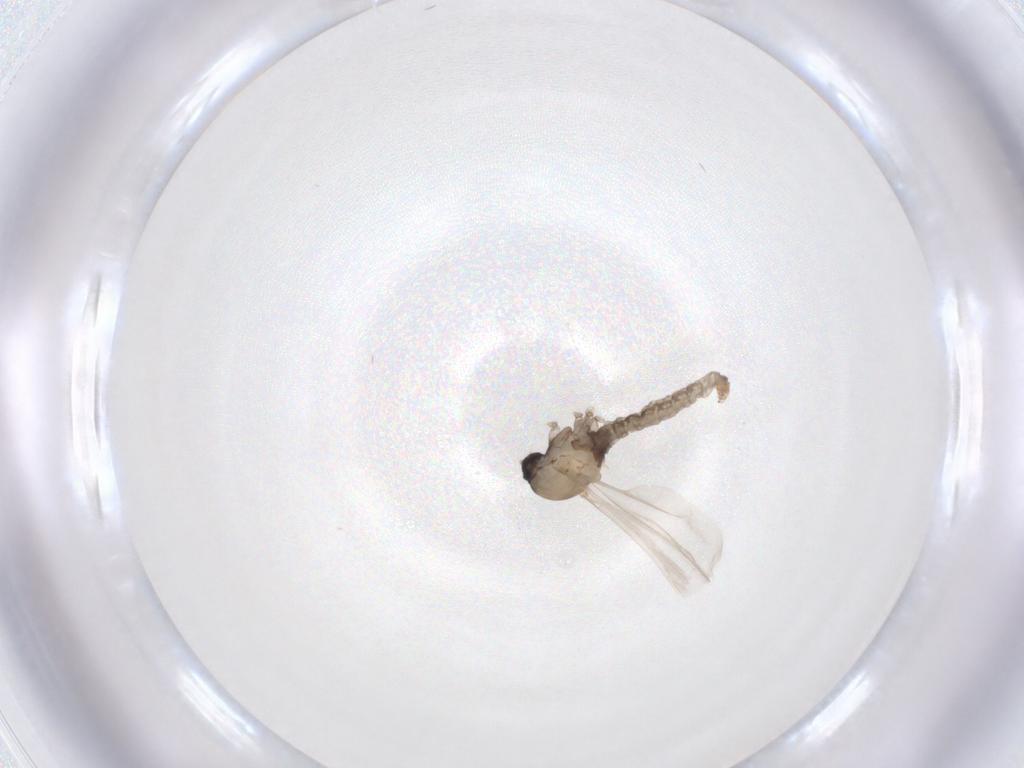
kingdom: Animalia
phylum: Arthropoda
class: Insecta
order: Diptera
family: Cecidomyiidae
